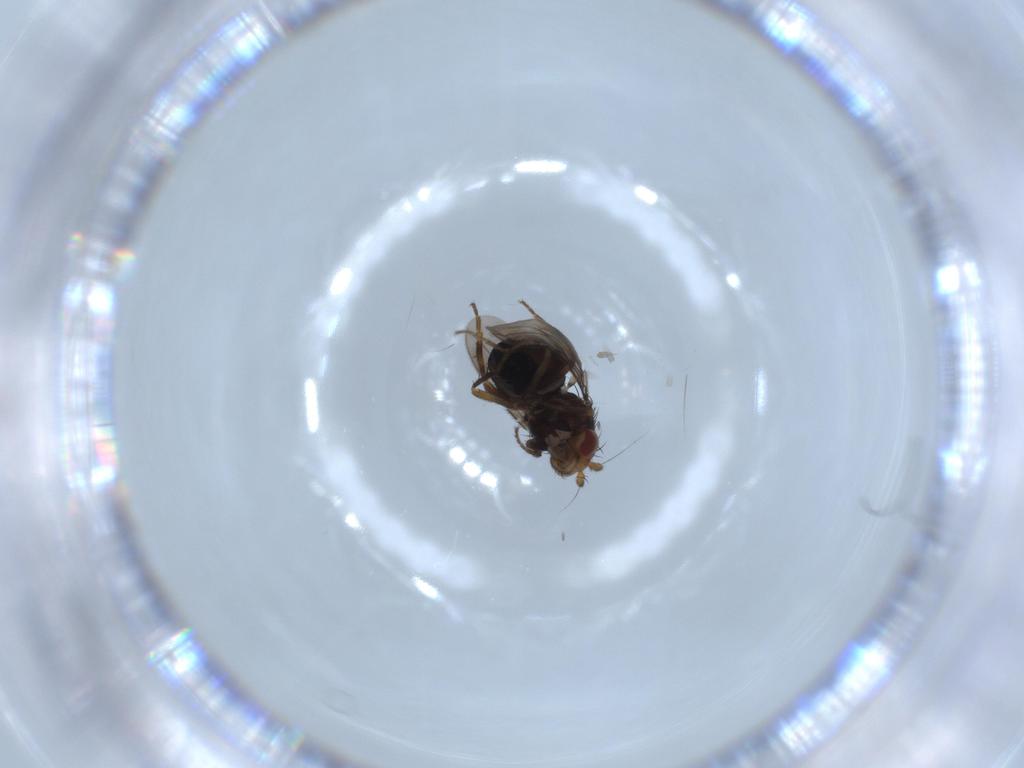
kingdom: Animalia
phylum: Arthropoda
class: Insecta
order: Diptera
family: Sphaeroceridae
